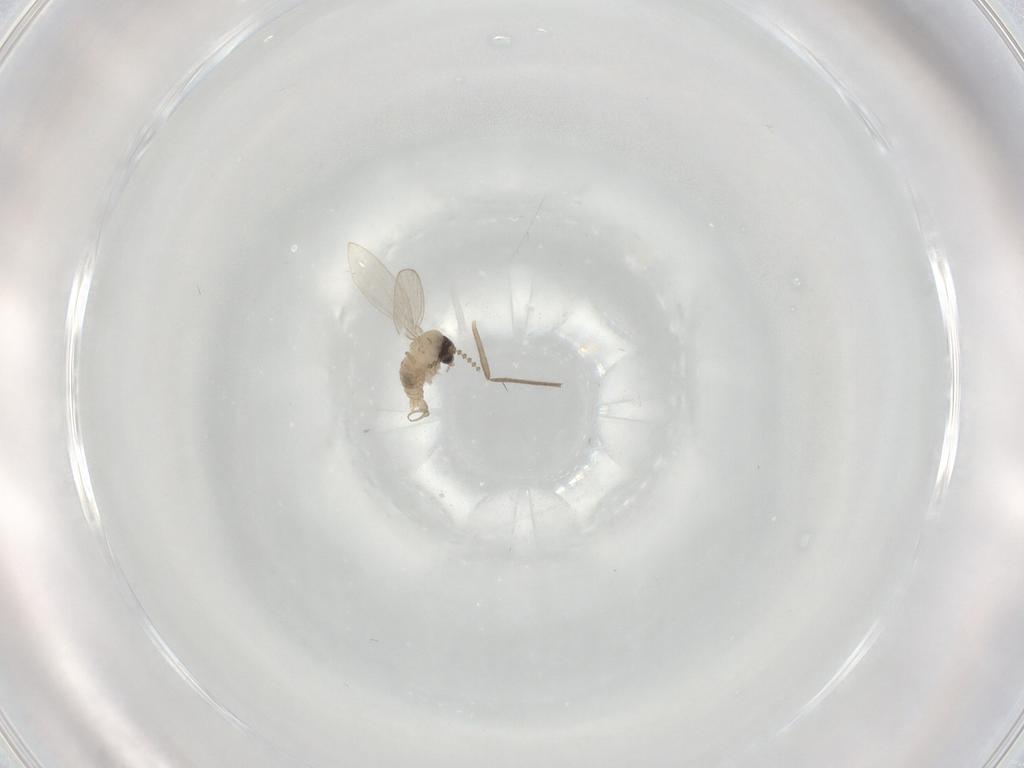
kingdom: Animalia
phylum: Arthropoda
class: Insecta
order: Diptera
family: Psychodidae
